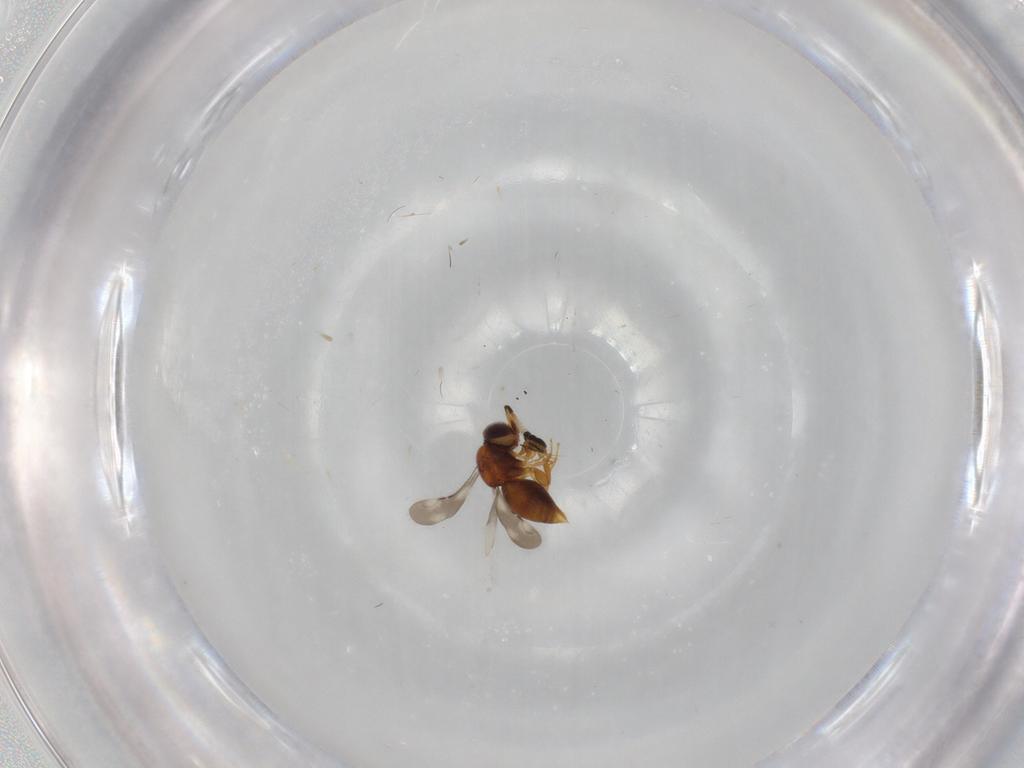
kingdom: Animalia
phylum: Arthropoda
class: Insecta
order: Hymenoptera
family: Ceraphronidae
